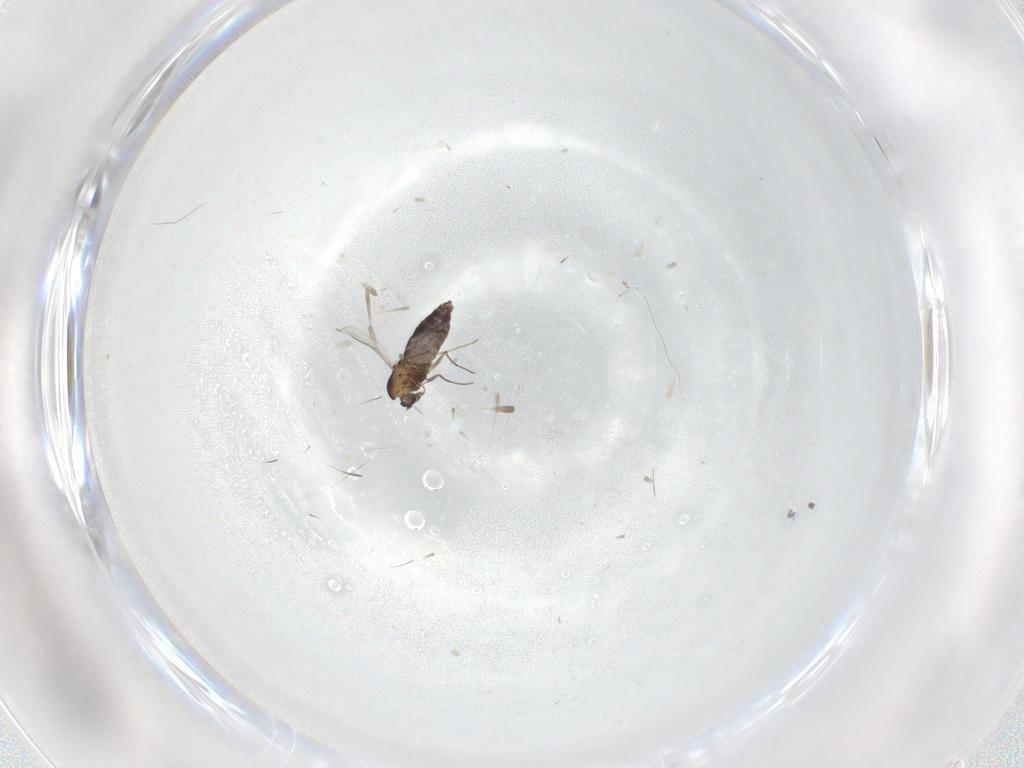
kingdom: Animalia
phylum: Arthropoda
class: Insecta
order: Diptera
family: Chironomidae
